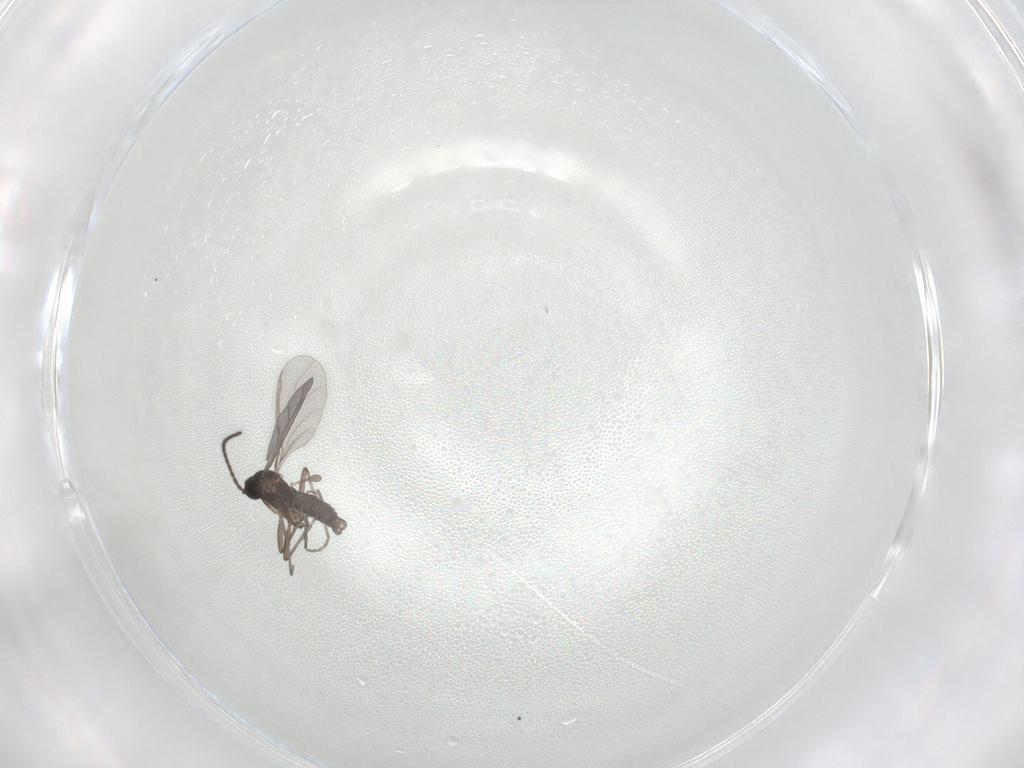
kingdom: Animalia
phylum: Arthropoda
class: Insecta
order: Diptera
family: Sciaridae
